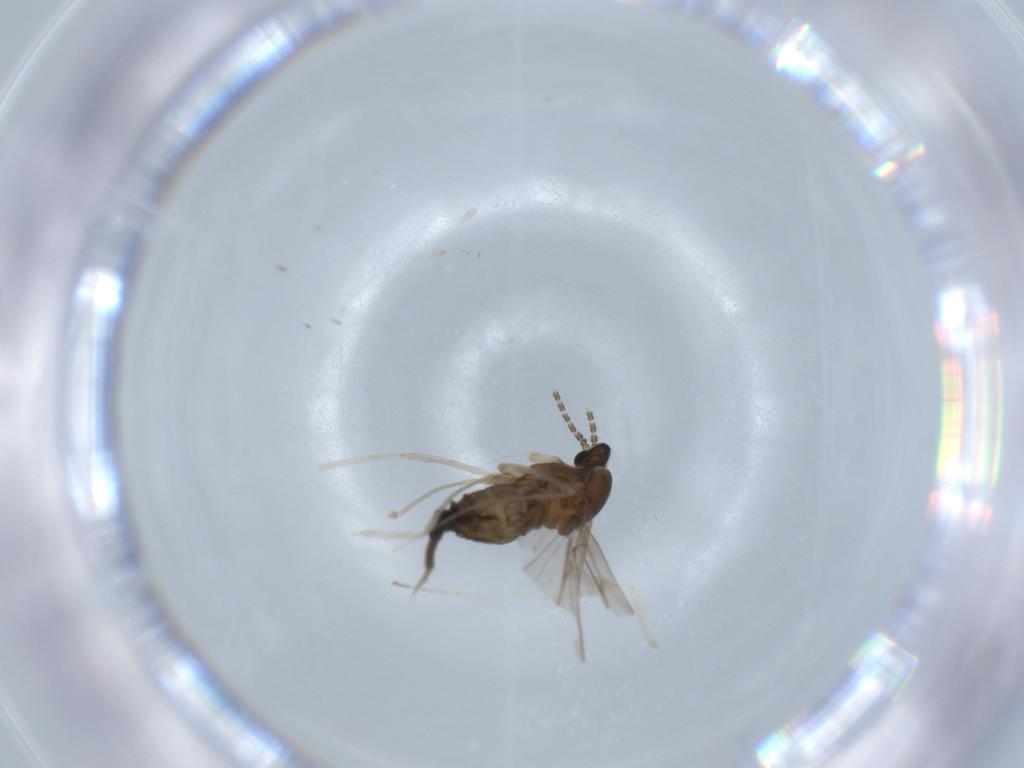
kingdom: Animalia
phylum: Arthropoda
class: Insecta
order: Diptera
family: Cecidomyiidae
